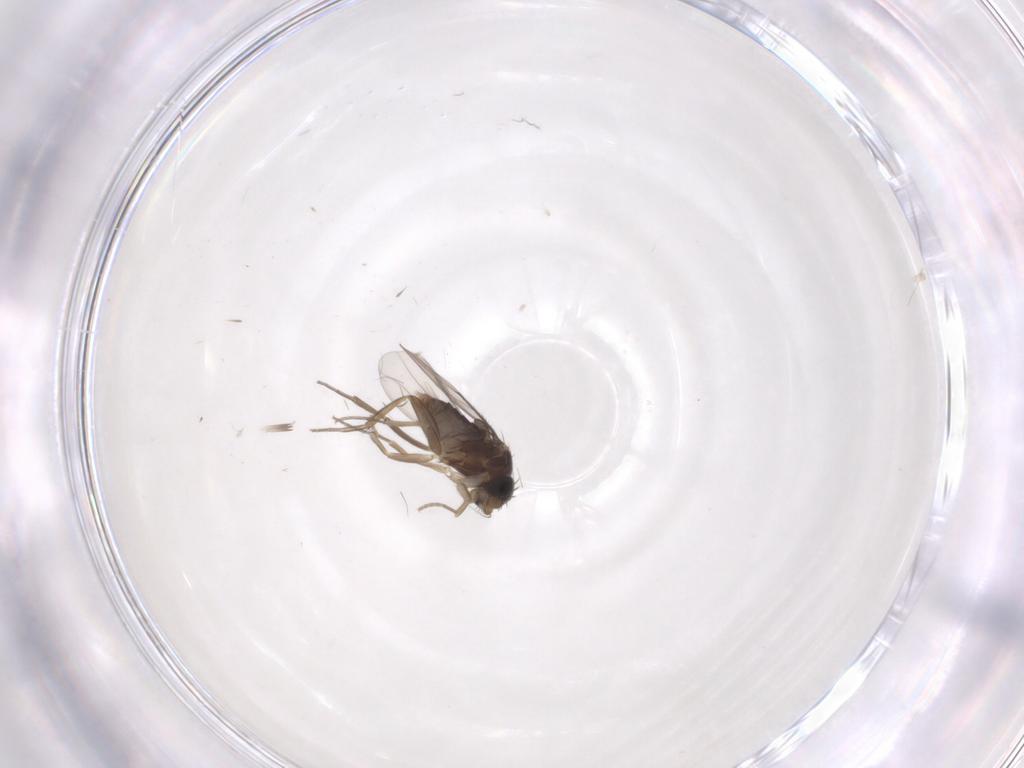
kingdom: Animalia
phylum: Arthropoda
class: Insecta
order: Diptera
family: Phoridae
